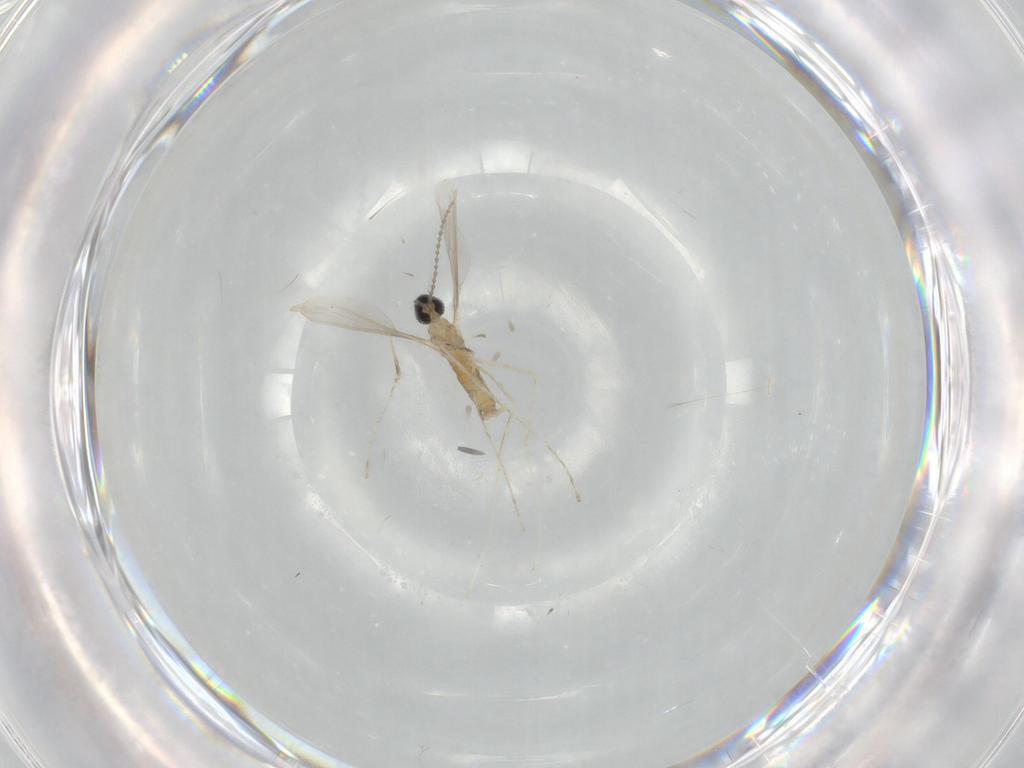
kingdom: Animalia
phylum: Arthropoda
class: Insecta
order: Diptera
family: Cecidomyiidae
